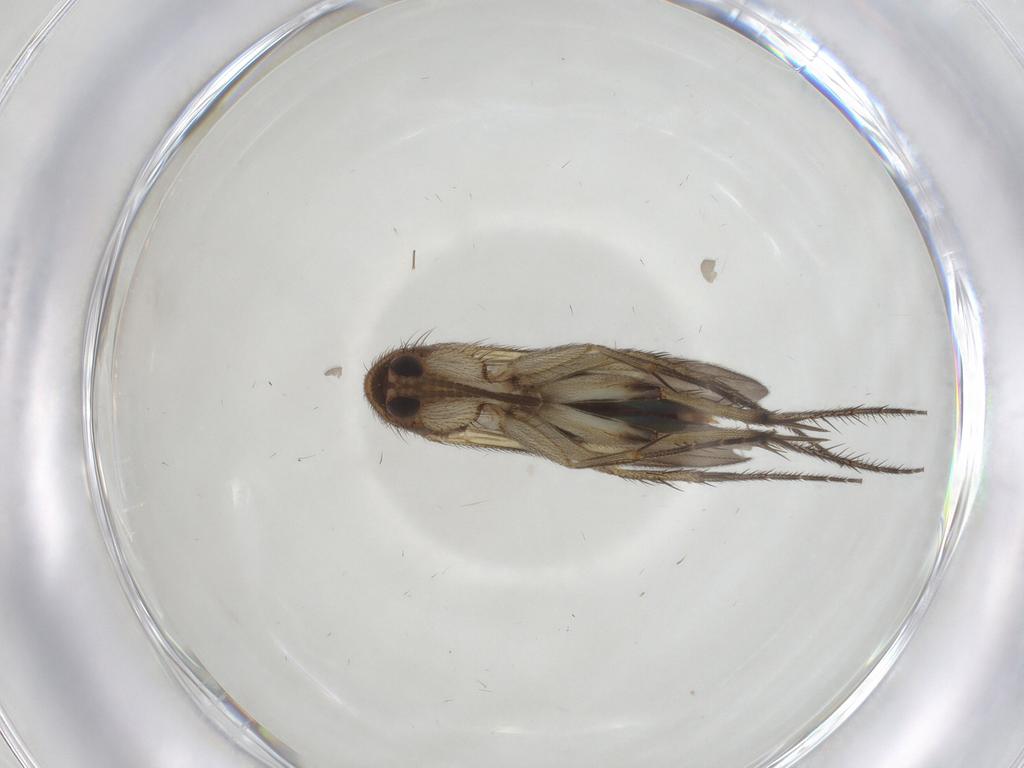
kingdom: Animalia
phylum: Arthropoda
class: Insecta
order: Diptera
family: Mycetophilidae
